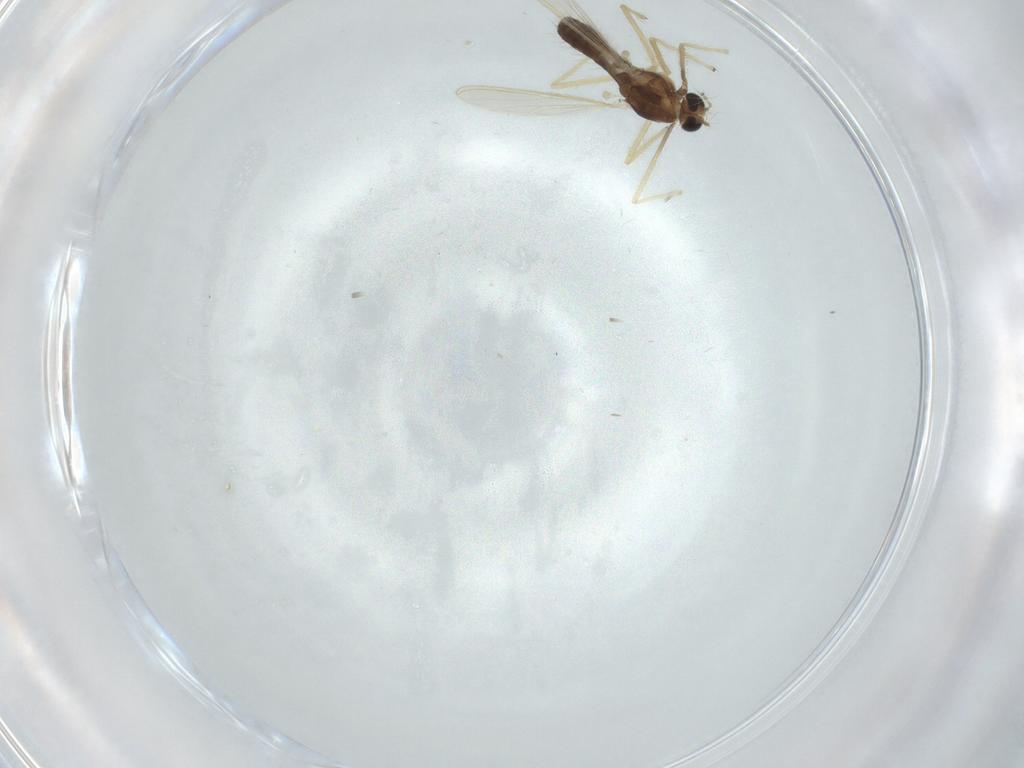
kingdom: Animalia
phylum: Arthropoda
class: Insecta
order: Diptera
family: Chironomidae
